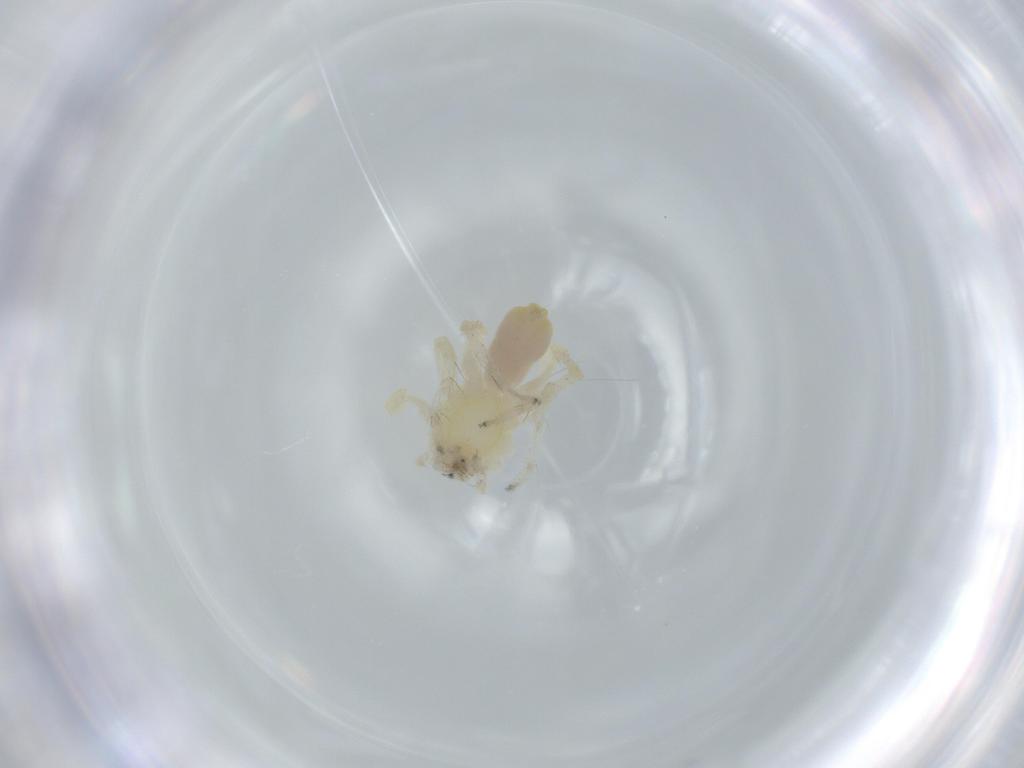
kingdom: Animalia
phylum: Arthropoda
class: Arachnida
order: Araneae
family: Anyphaenidae
